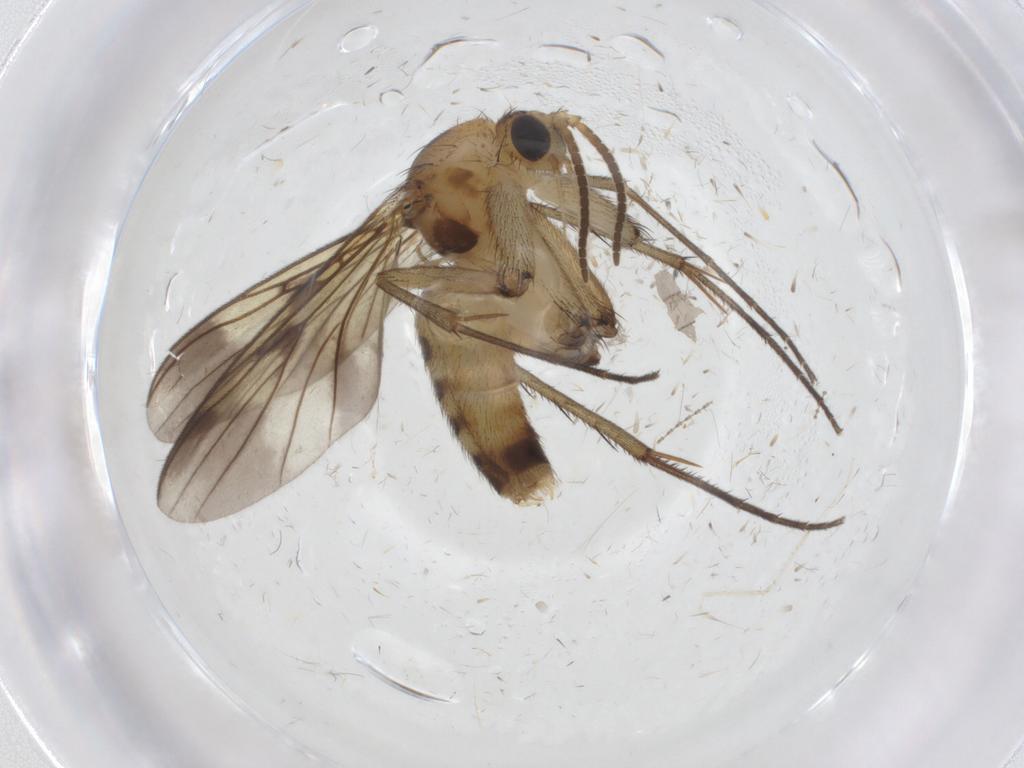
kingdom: Animalia
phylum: Arthropoda
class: Insecta
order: Diptera
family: Mycetophilidae
